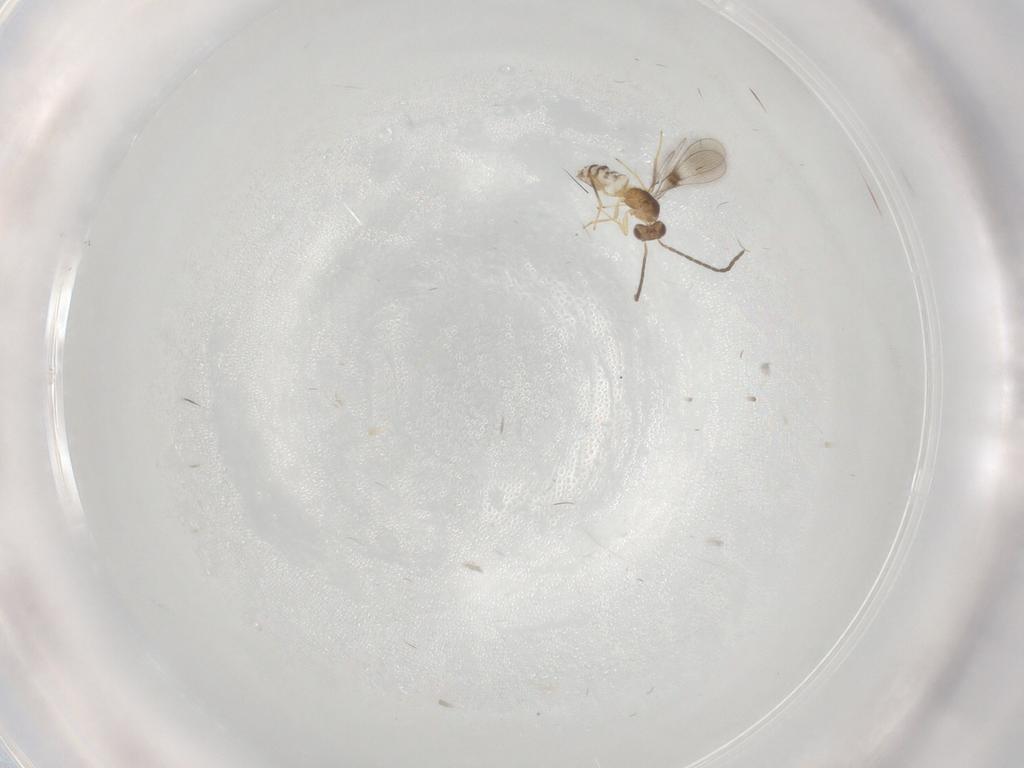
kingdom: Animalia
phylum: Arthropoda
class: Insecta
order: Hymenoptera
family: Mymaridae
